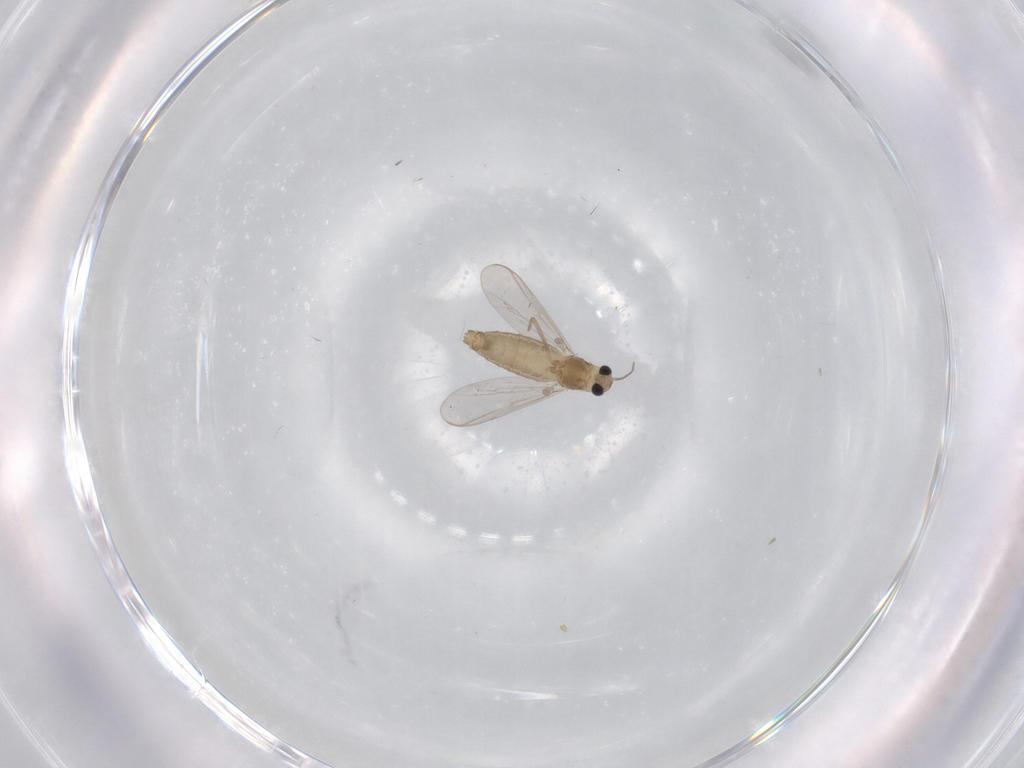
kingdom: Animalia
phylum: Arthropoda
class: Insecta
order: Diptera
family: Chironomidae
